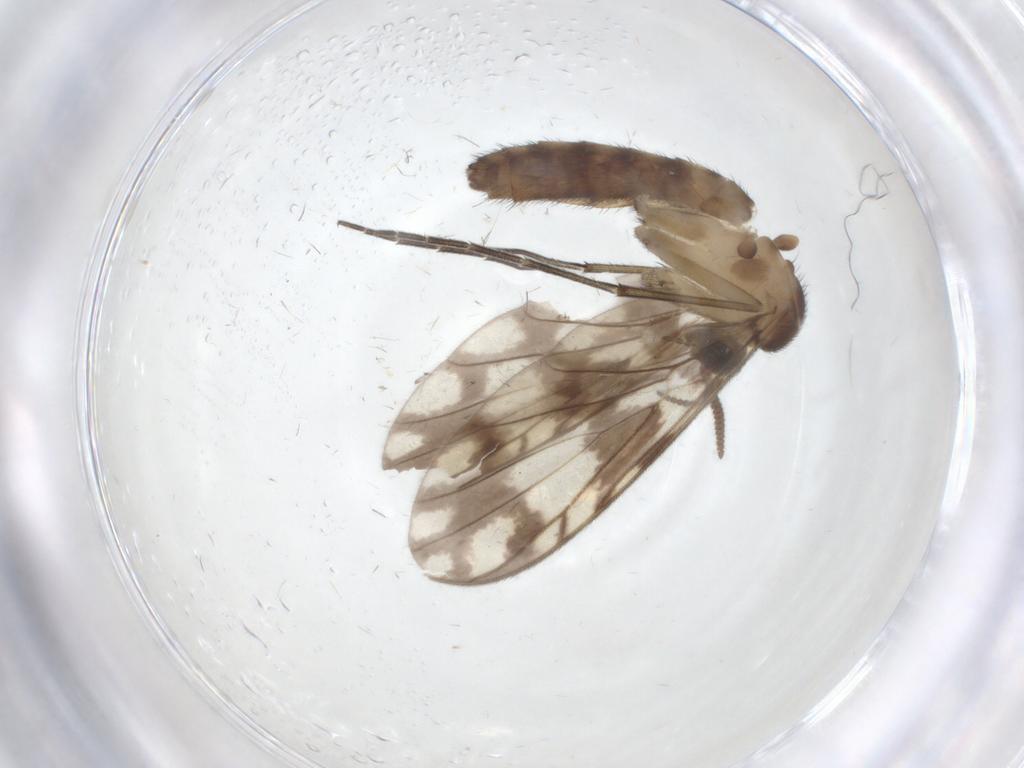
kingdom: Animalia
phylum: Arthropoda
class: Insecta
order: Diptera
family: Keroplatidae
